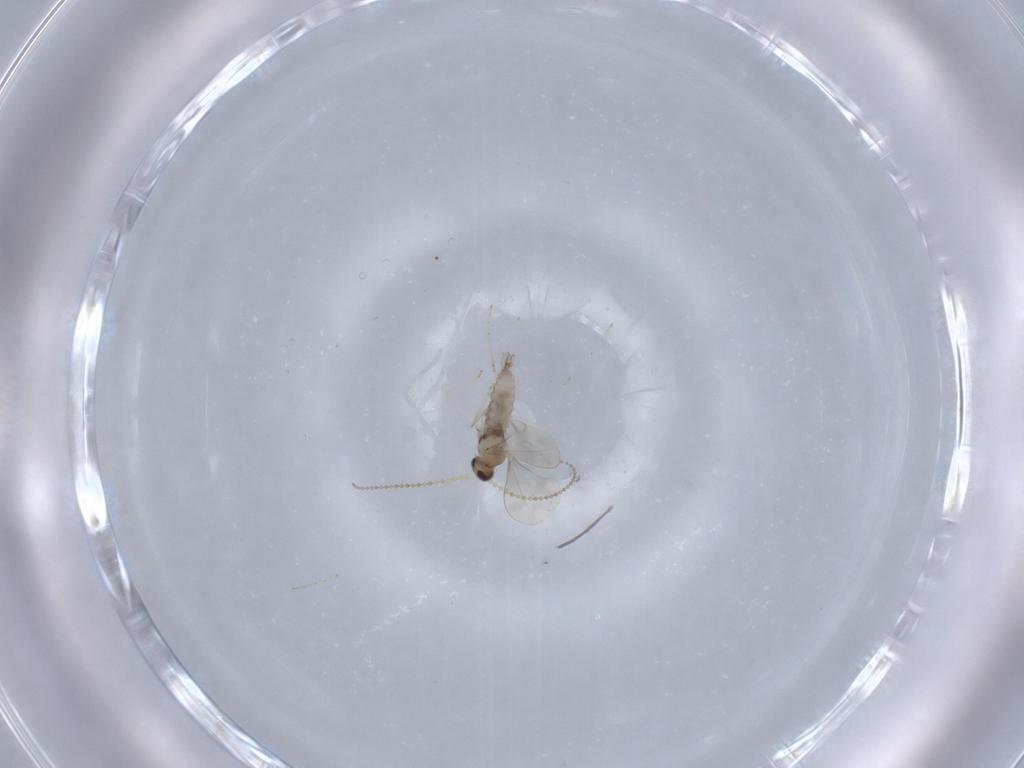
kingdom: Animalia
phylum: Arthropoda
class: Insecta
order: Diptera
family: Cecidomyiidae
